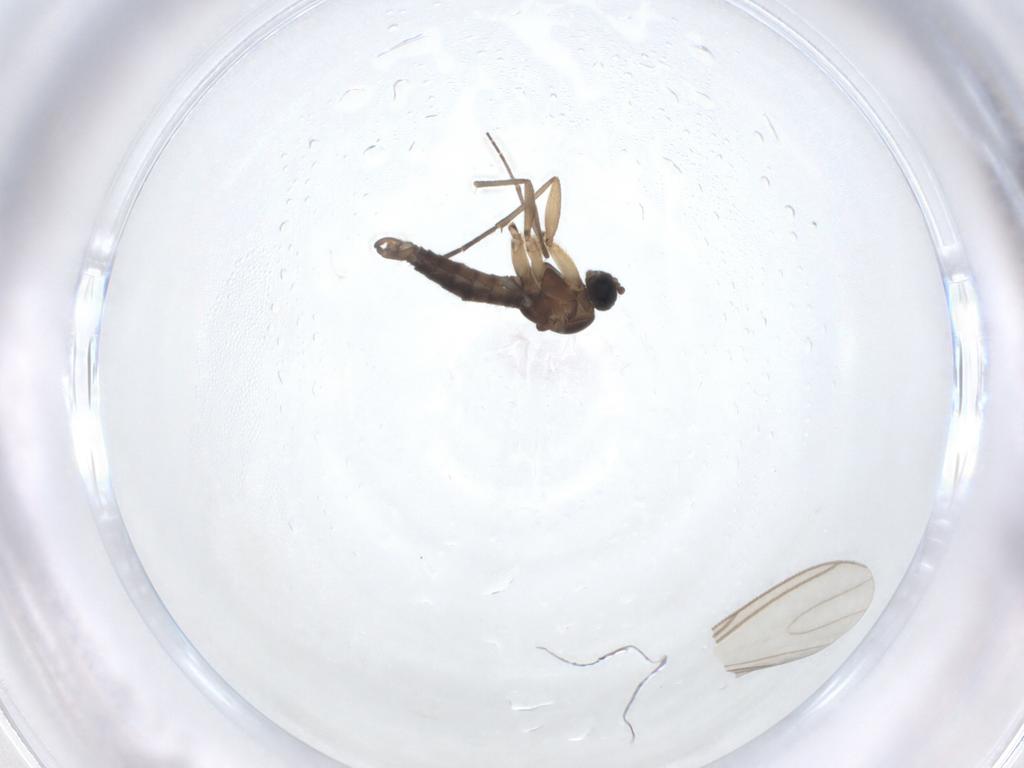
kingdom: Animalia
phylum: Arthropoda
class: Insecta
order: Diptera
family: Sciaridae
